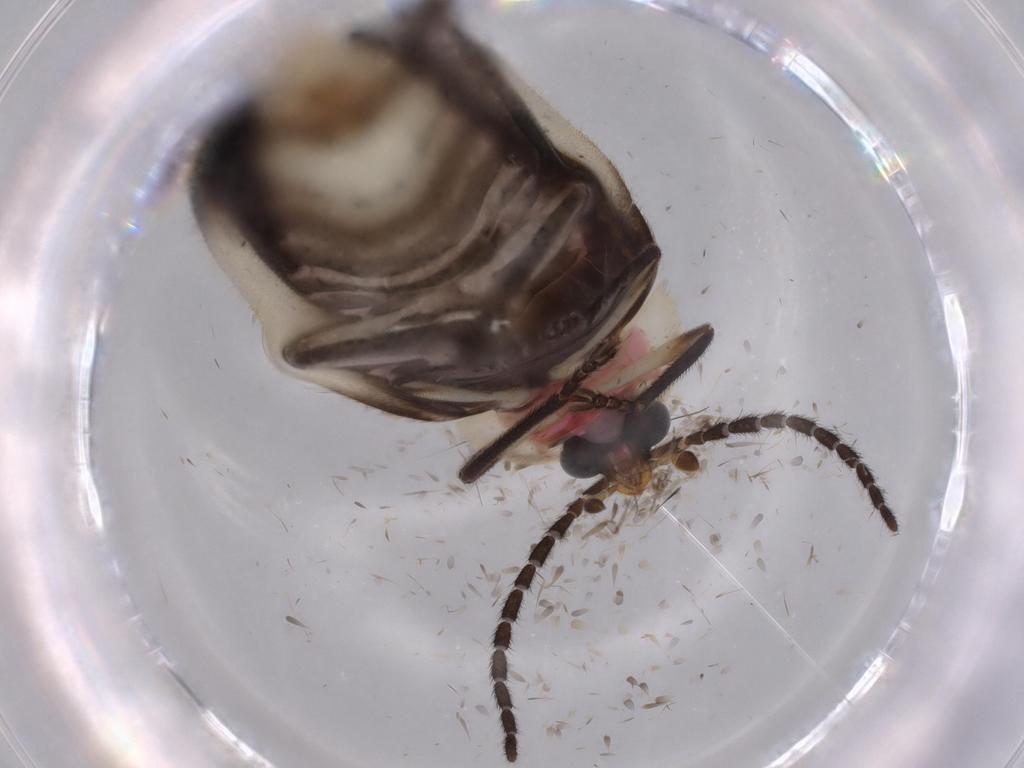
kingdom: Animalia
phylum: Arthropoda
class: Insecta
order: Coleoptera
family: Lampyridae
